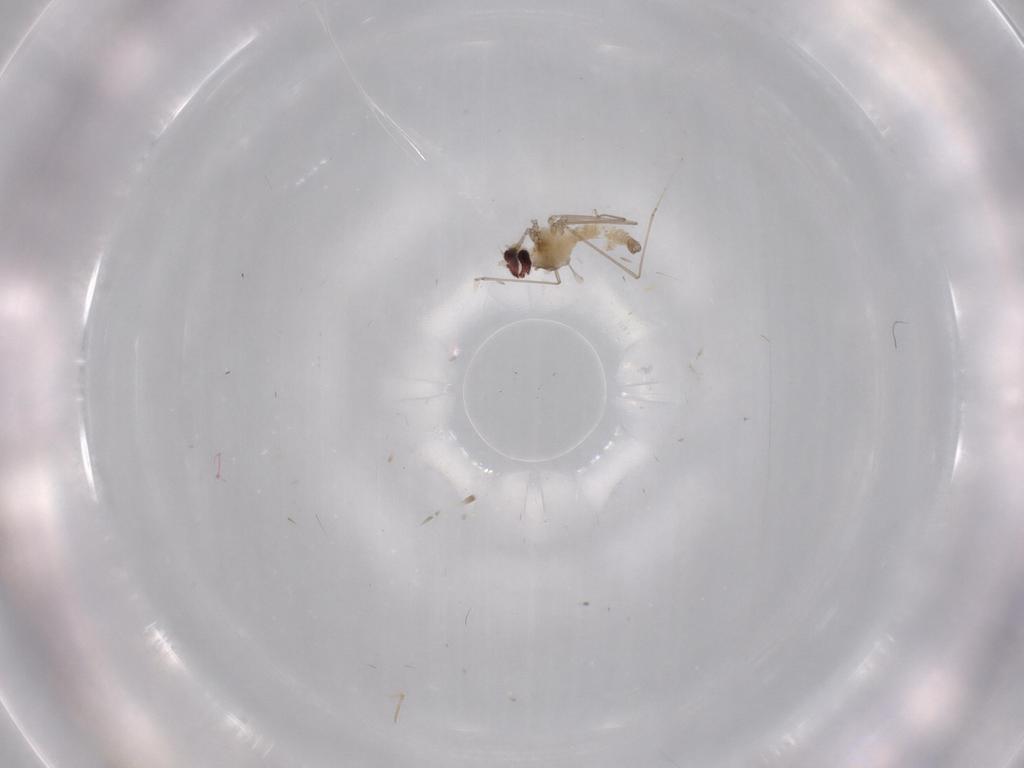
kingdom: Animalia
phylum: Arthropoda
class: Insecta
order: Diptera
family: Cecidomyiidae
